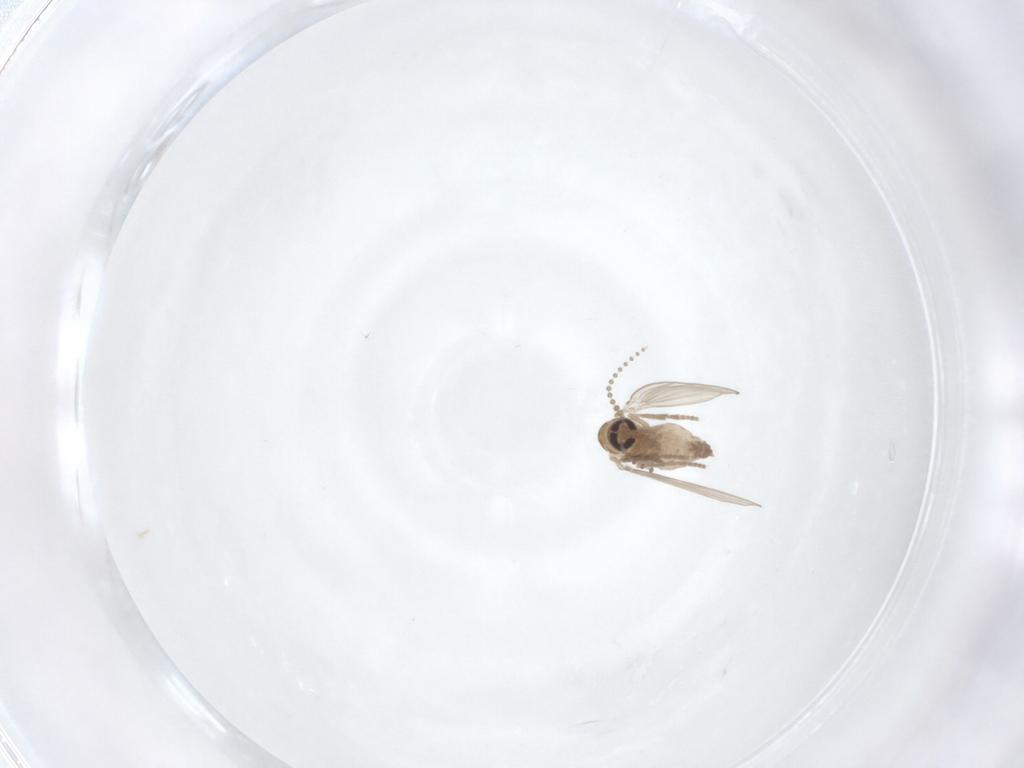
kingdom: Animalia
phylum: Arthropoda
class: Insecta
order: Diptera
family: Psychodidae
